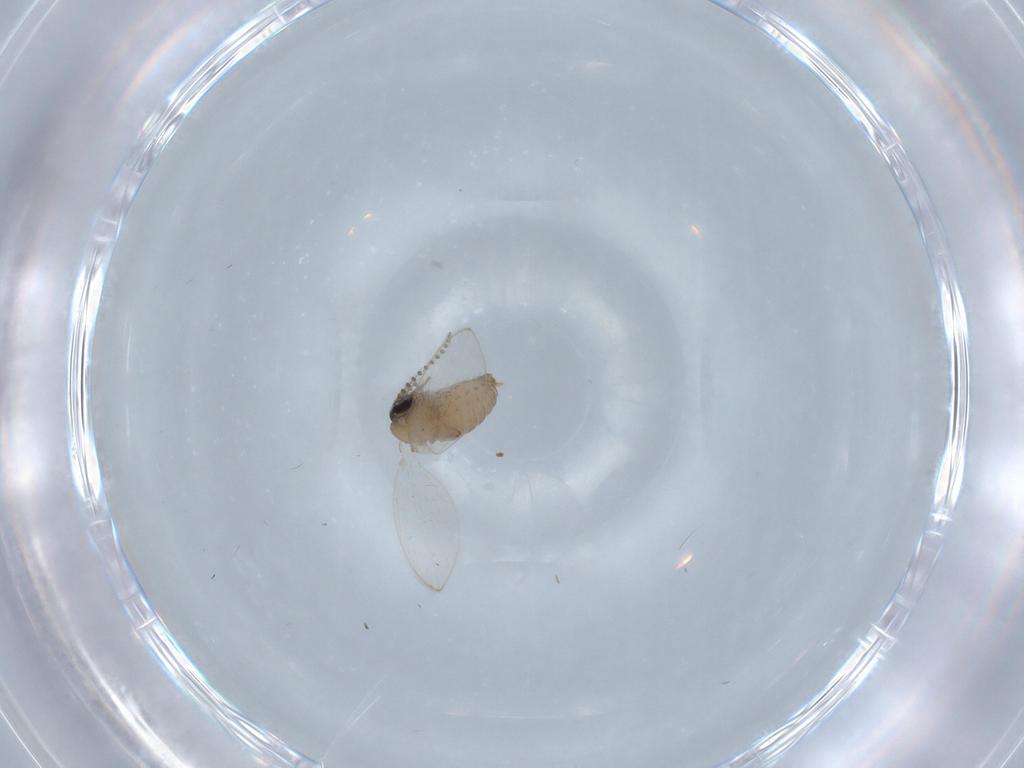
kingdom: Animalia
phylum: Arthropoda
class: Insecta
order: Diptera
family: Psychodidae
